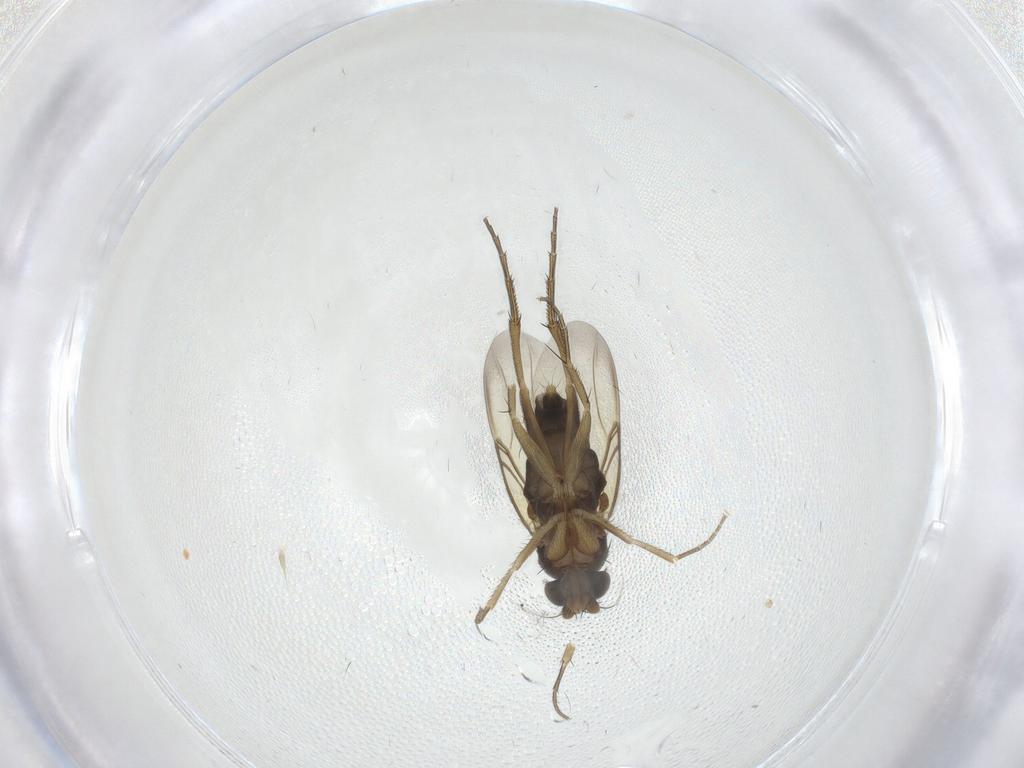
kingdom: Animalia
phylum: Arthropoda
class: Insecta
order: Diptera
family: Phoridae
